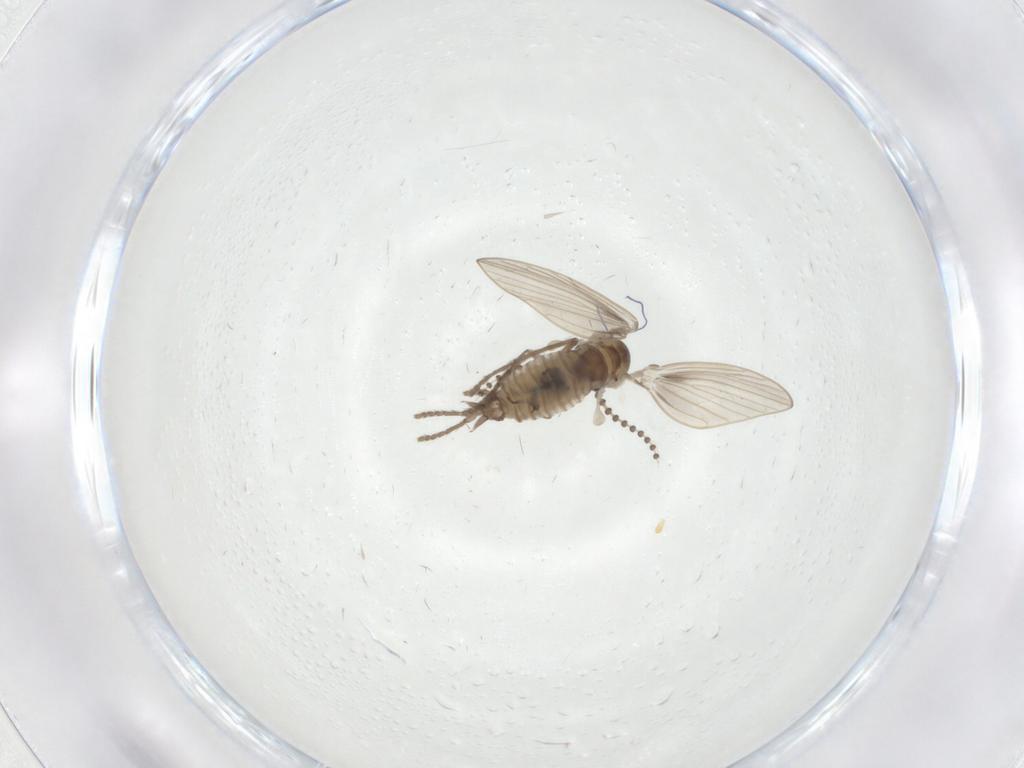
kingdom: Animalia
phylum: Arthropoda
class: Insecta
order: Diptera
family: Psychodidae
